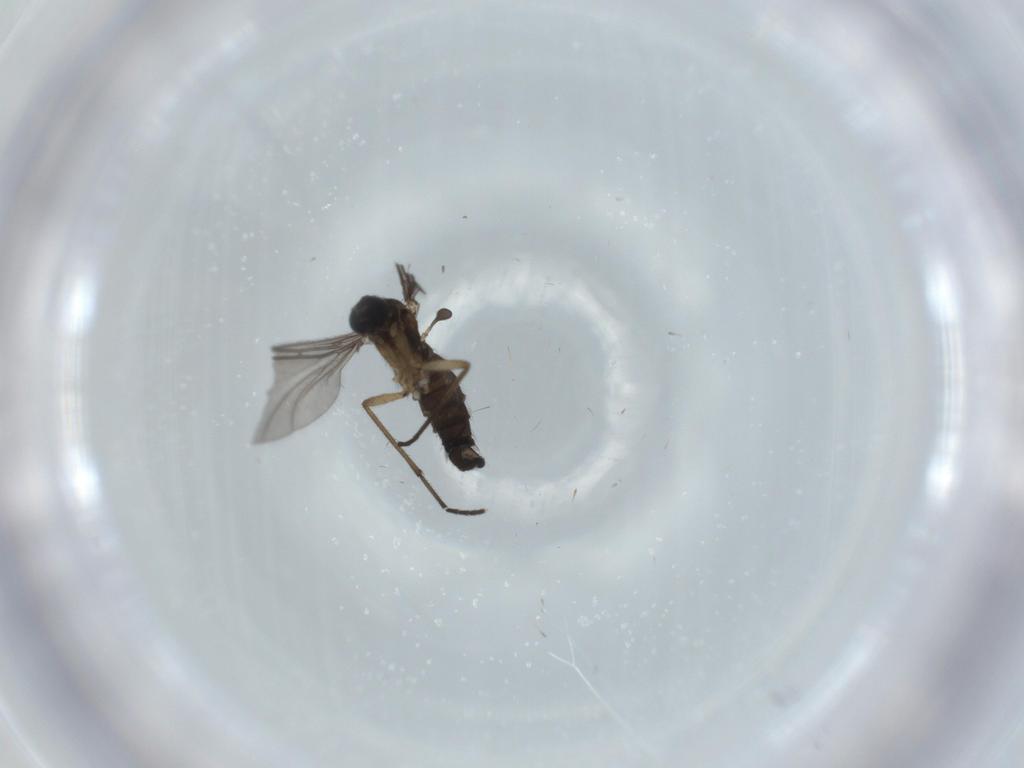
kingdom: Animalia
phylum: Arthropoda
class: Insecta
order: Diptera
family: Sciaridae
